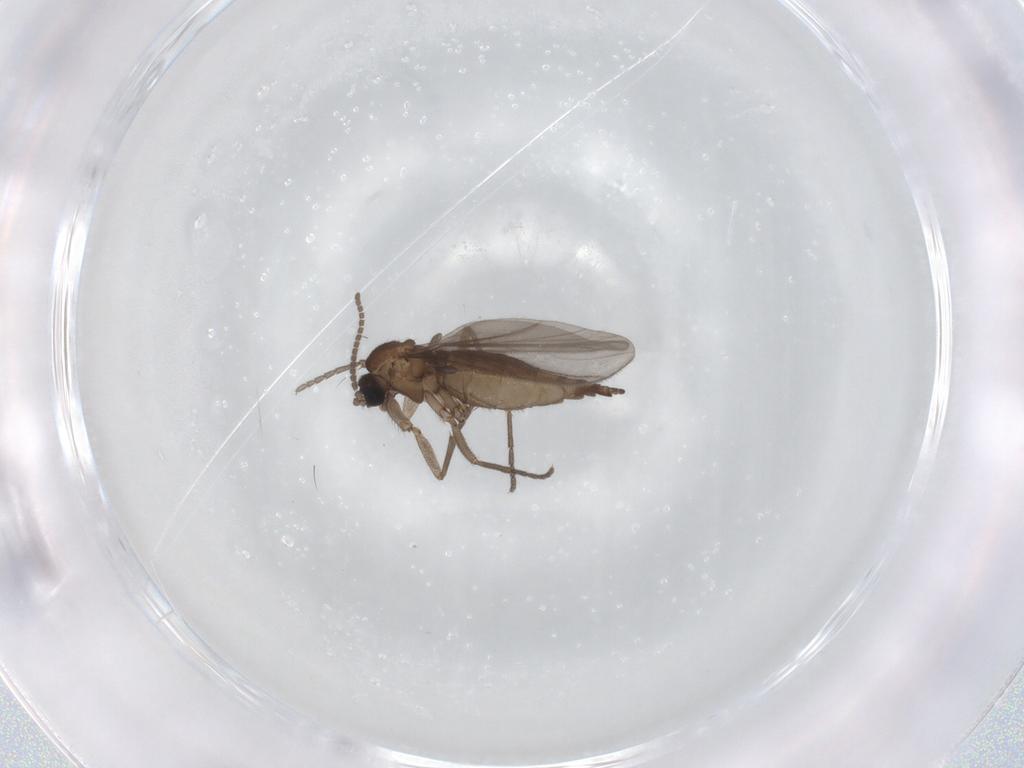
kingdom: Animalia
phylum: Arthropoda
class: Insecta
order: Diptera
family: Sciaridae
